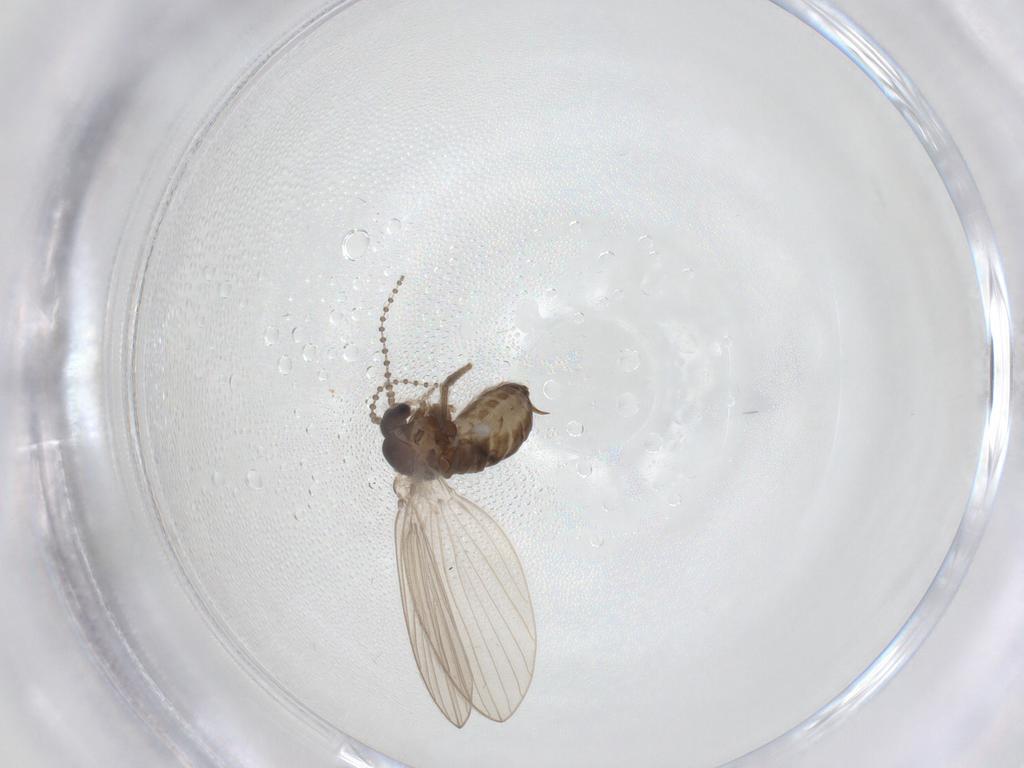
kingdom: Animalia
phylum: Arthropoda
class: Insecta
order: Diptera
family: Psychodidae
